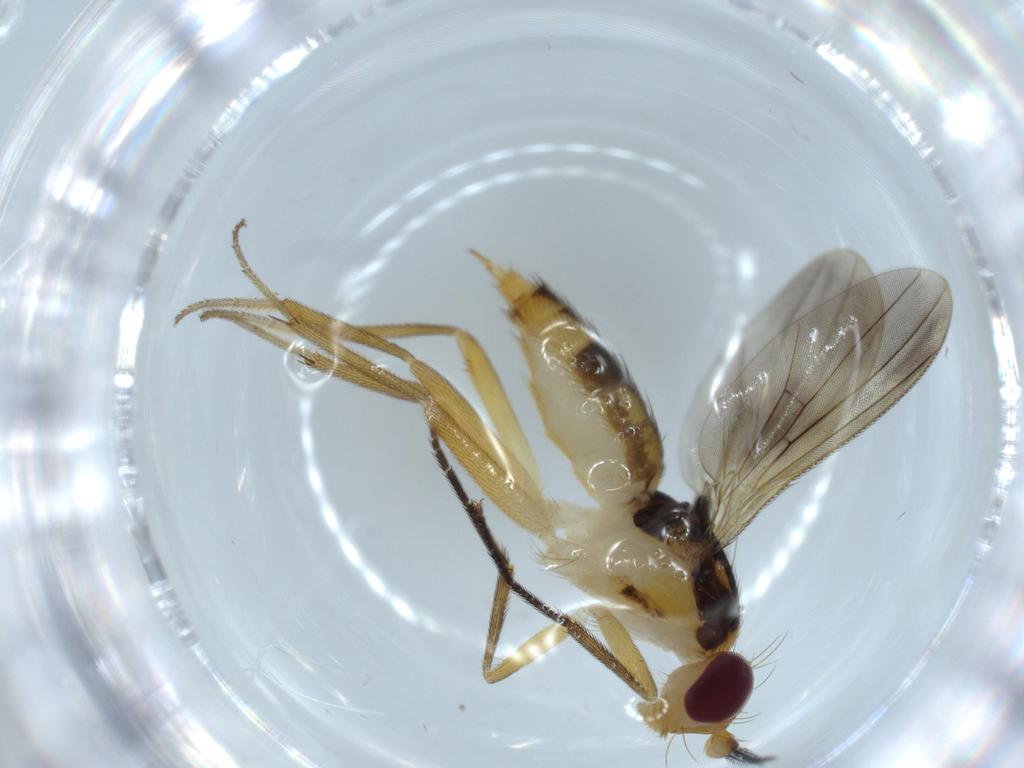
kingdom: Animalia
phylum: Arthropoda
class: Insecta
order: Diptera
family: Clusiidae
